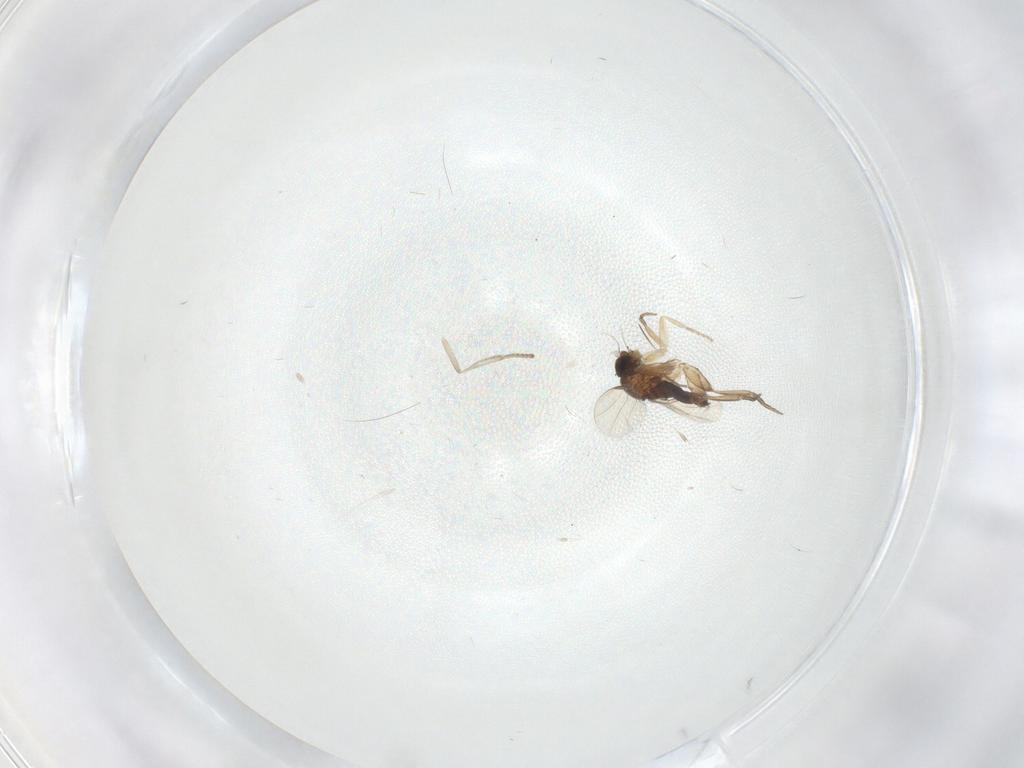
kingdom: Animalia
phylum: Arthropoda
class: Insecta
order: Diptera
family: Phoridae
